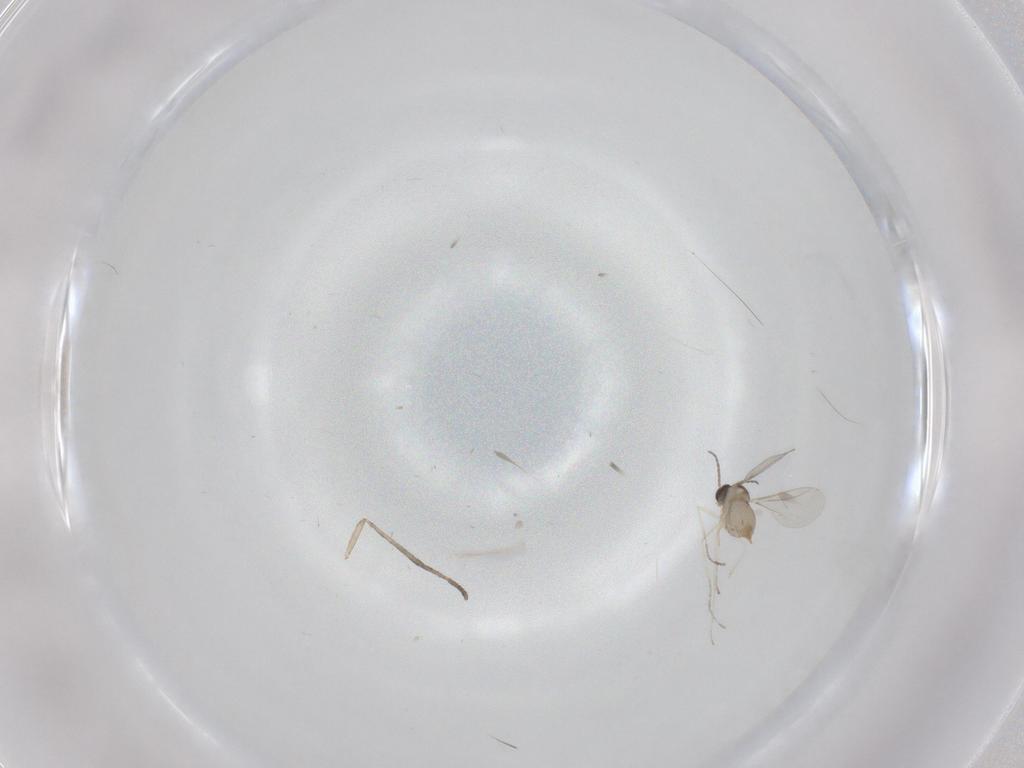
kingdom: Animalia
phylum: Arthropoda
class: Insecta
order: Diptera
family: Cecidomyiidae
